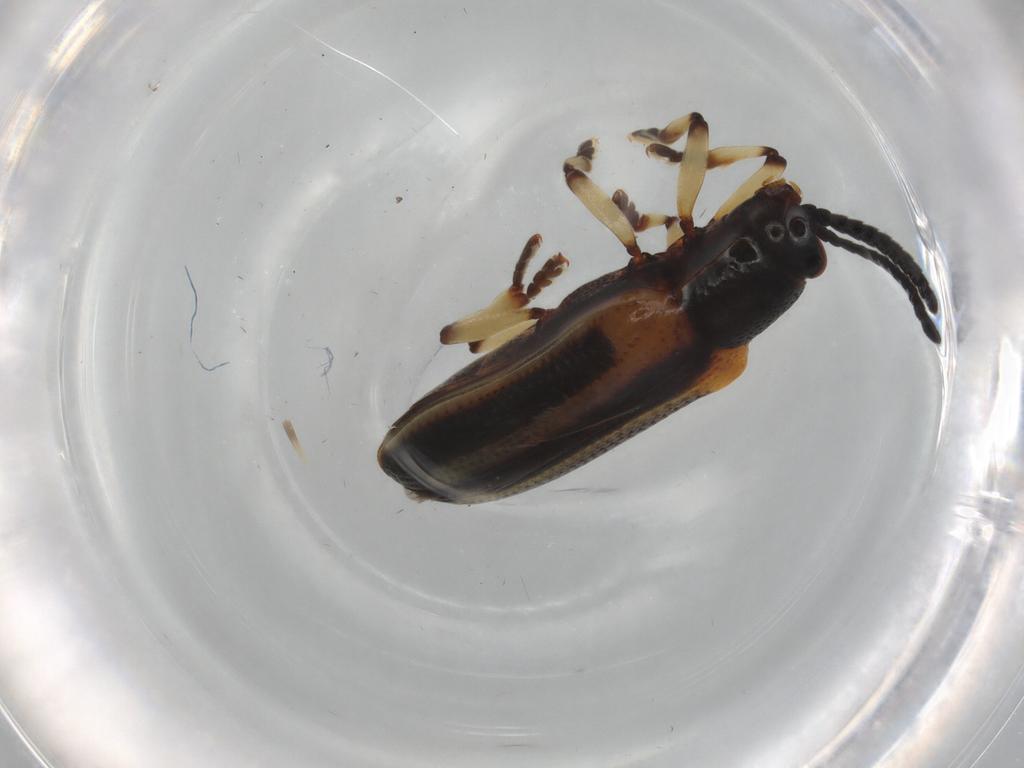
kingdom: Animalia
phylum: Arthropoda
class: Insecta
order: Coleoptera
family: Chrysomelidae
